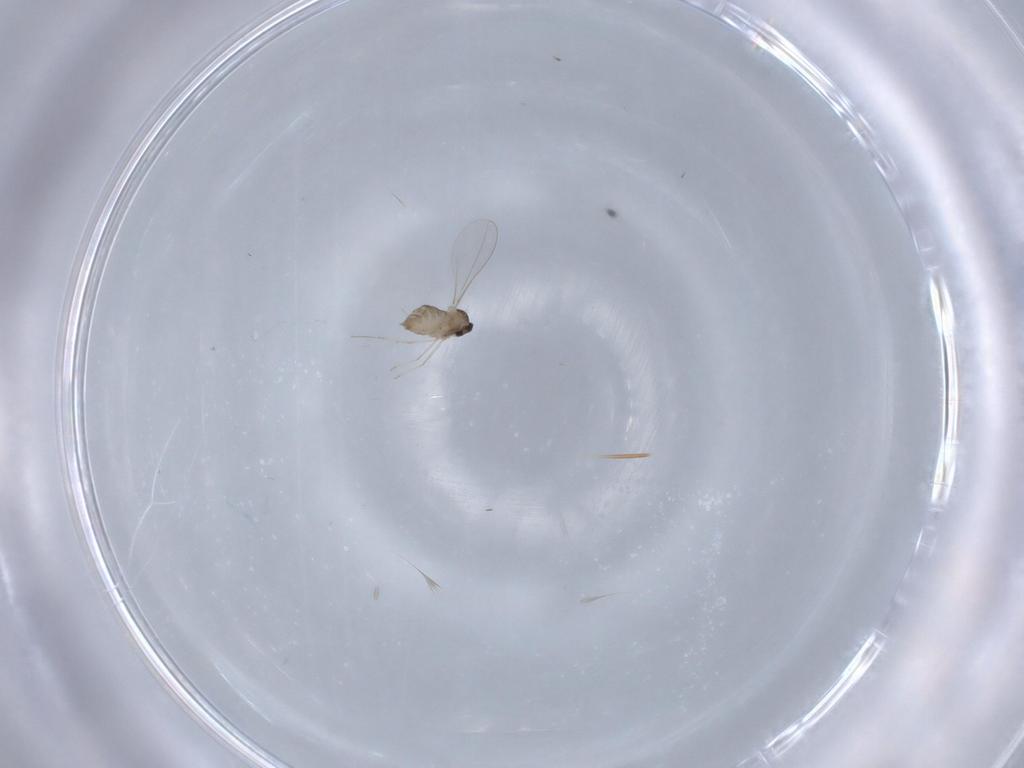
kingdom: Animalia
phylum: Arthropoda
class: Insecta
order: Diptera
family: Cecidomyiidae
